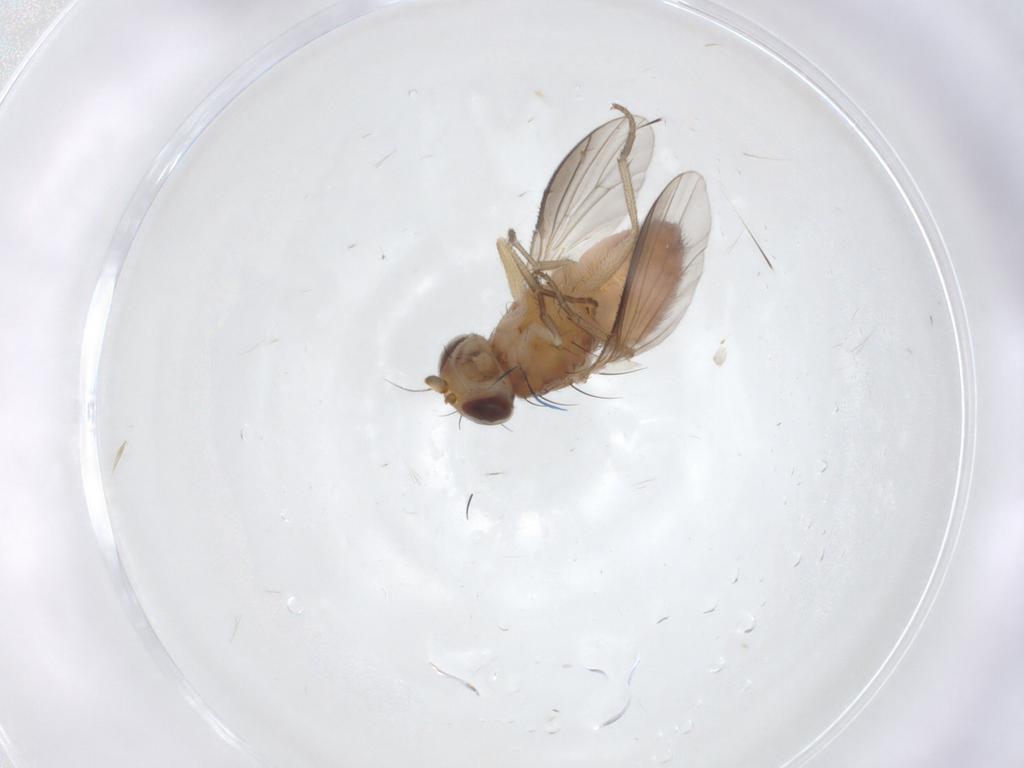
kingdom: Animalia
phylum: Arthropoda
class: Insecta
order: Diptera
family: Heleomyzidae
